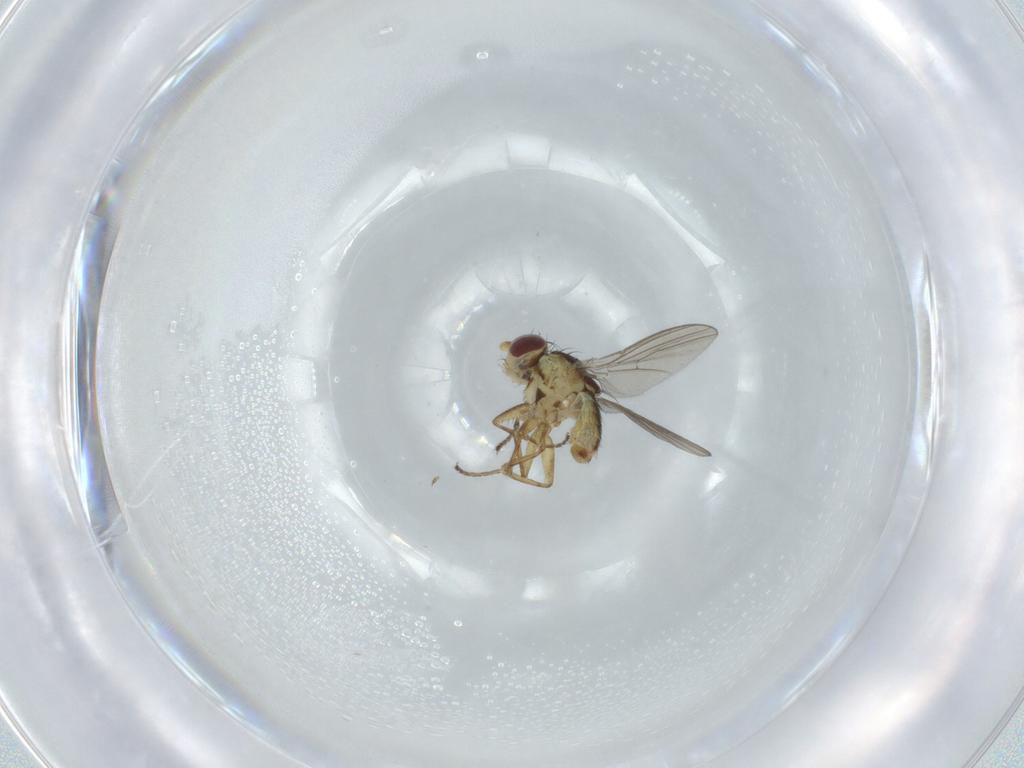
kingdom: Animalia
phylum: Arthropoda
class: Insecta
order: Diptera
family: Agromyzidae
